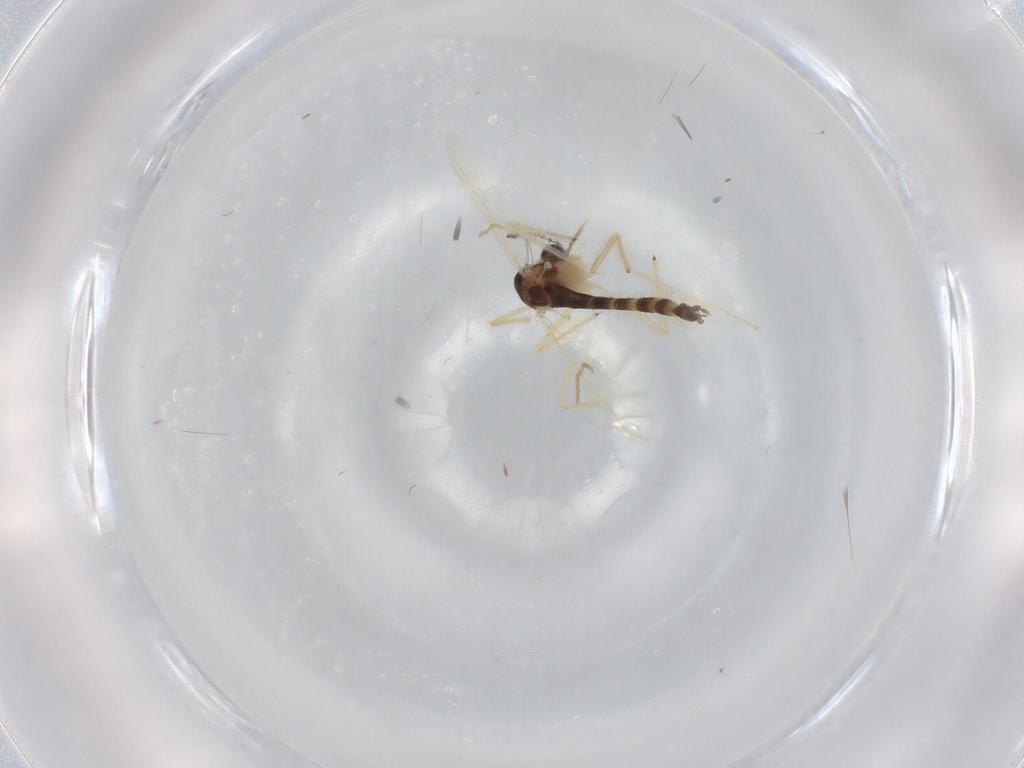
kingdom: Animalia
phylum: Arthropoda
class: Insecta
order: Diptera
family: Chironomidae
